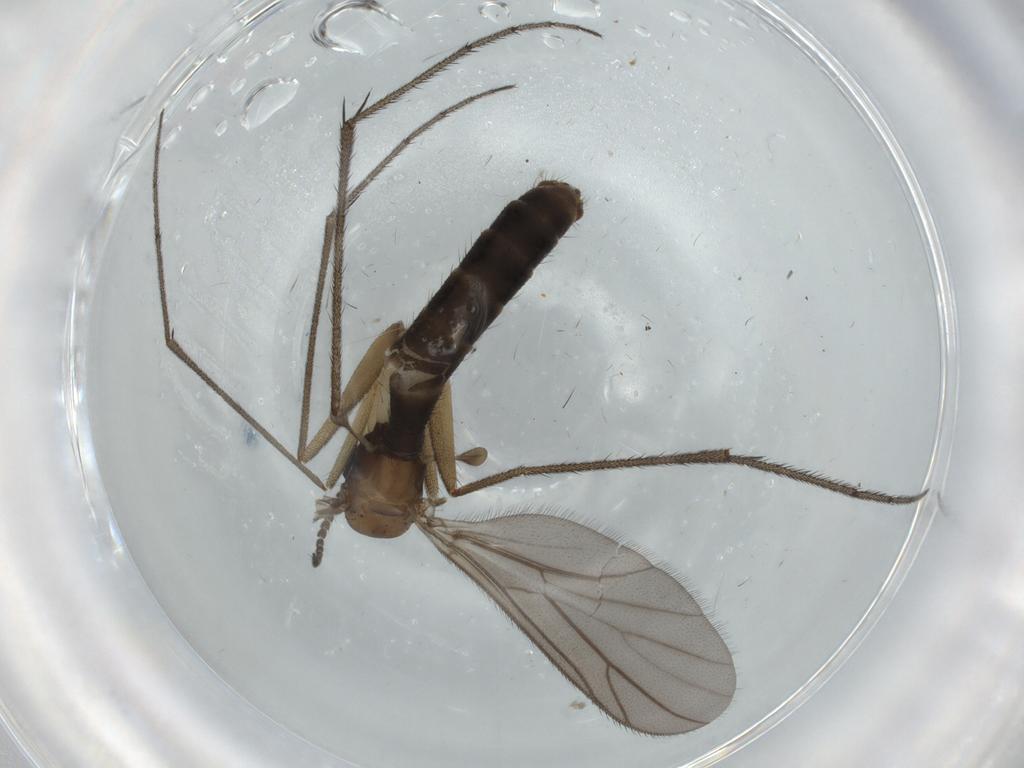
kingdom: Animalia
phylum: Arthropoda
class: Insecta
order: Diptera
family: Ditomyiidae
